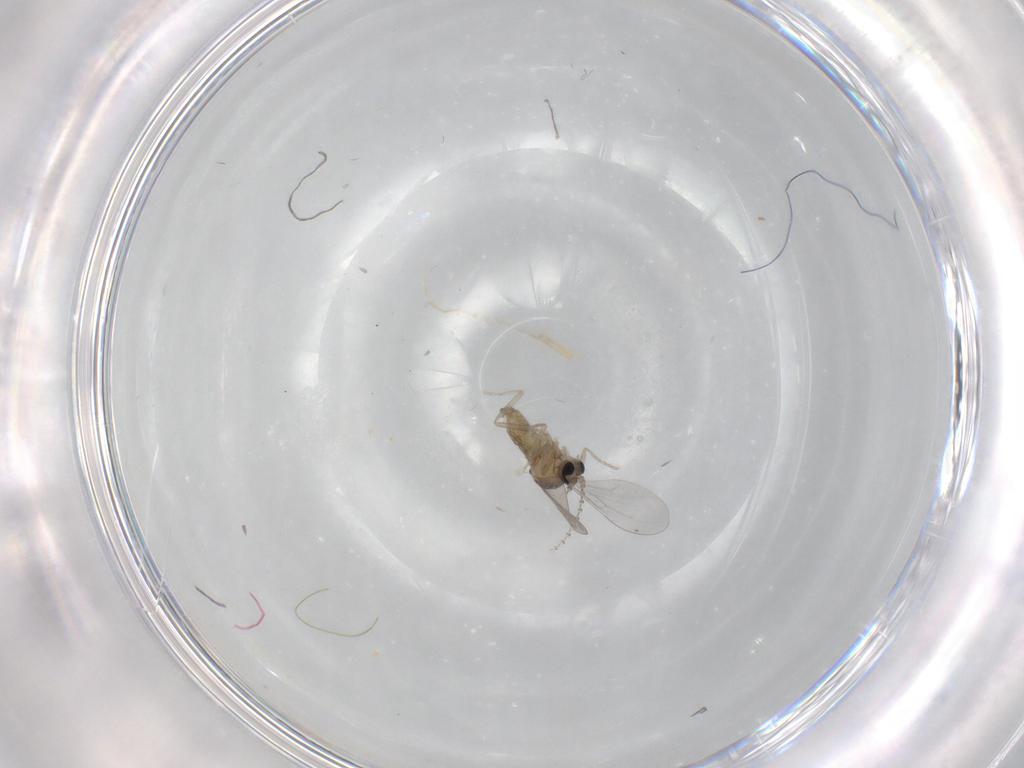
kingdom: Animalia
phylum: Arthropoda
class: Insecta
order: Diptera
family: Cecidomyiidae
